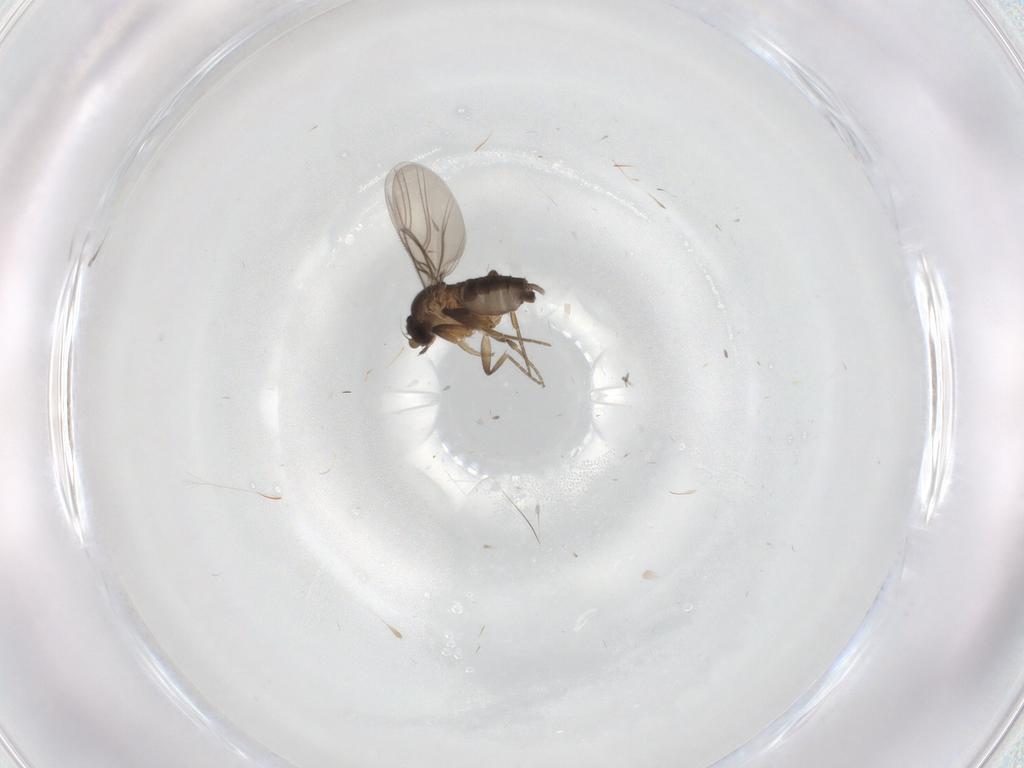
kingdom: Animalia
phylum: Arthropoda
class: Insecta
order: Diptera
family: Phoridae
